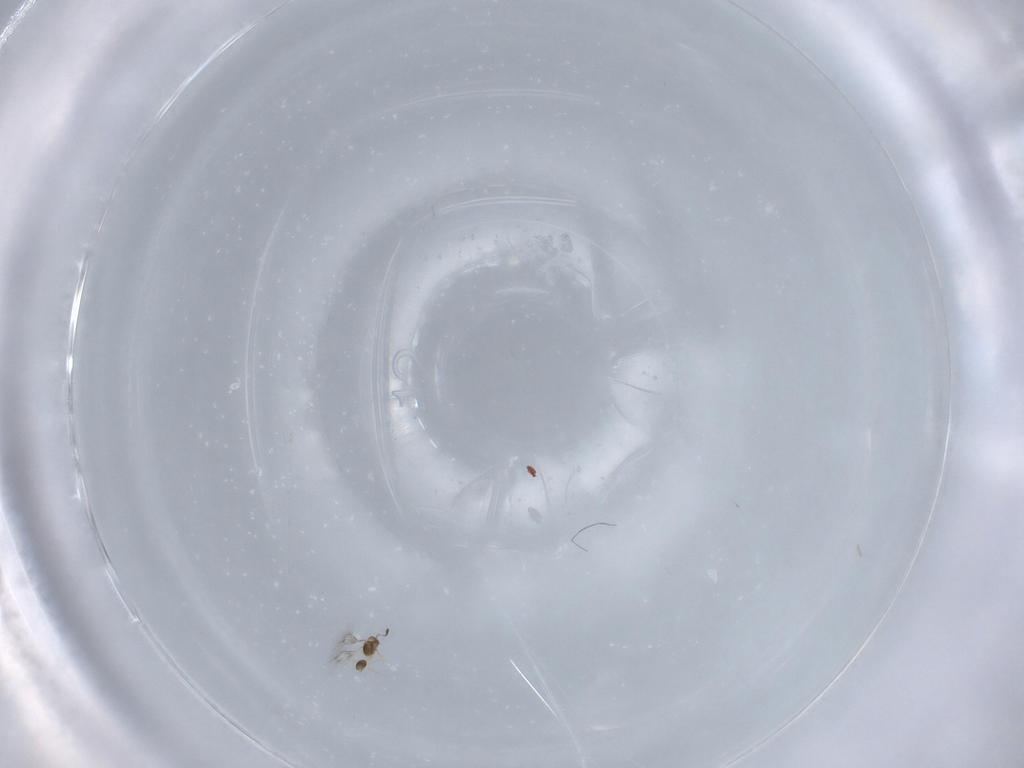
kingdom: Animalia
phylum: Arthropoda
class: Insecta
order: Hymenoptera
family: Mymarommatidae
